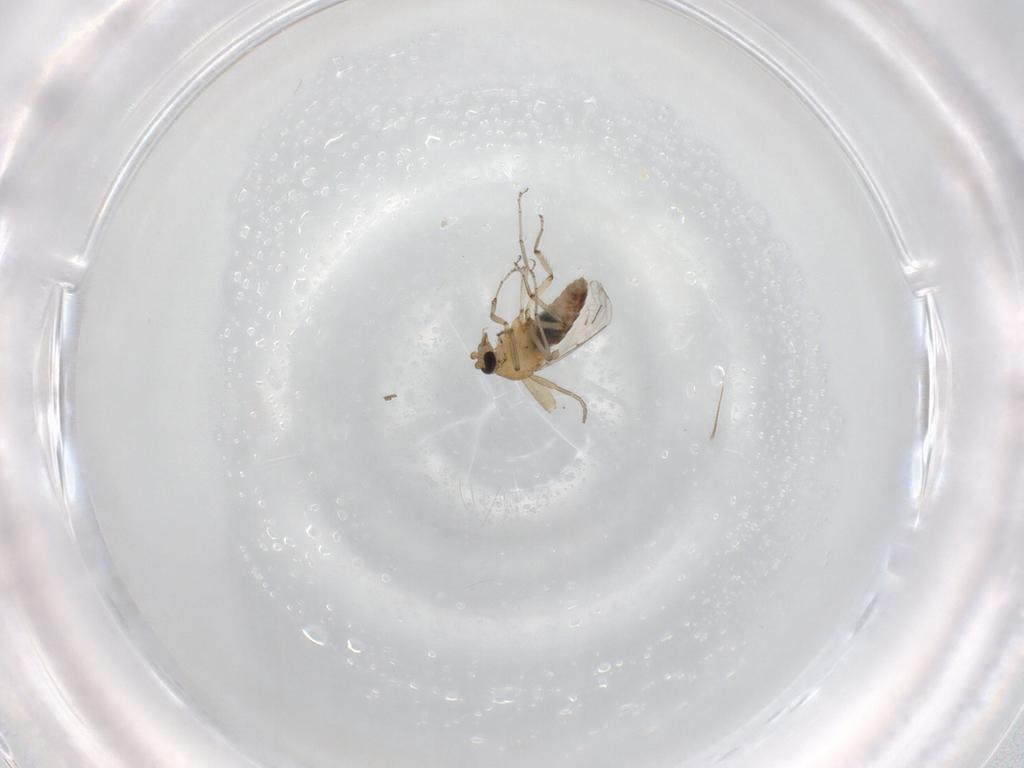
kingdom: Animalia
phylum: Arthropoda
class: Insecta
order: Diptera
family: Ceratopogonidae
